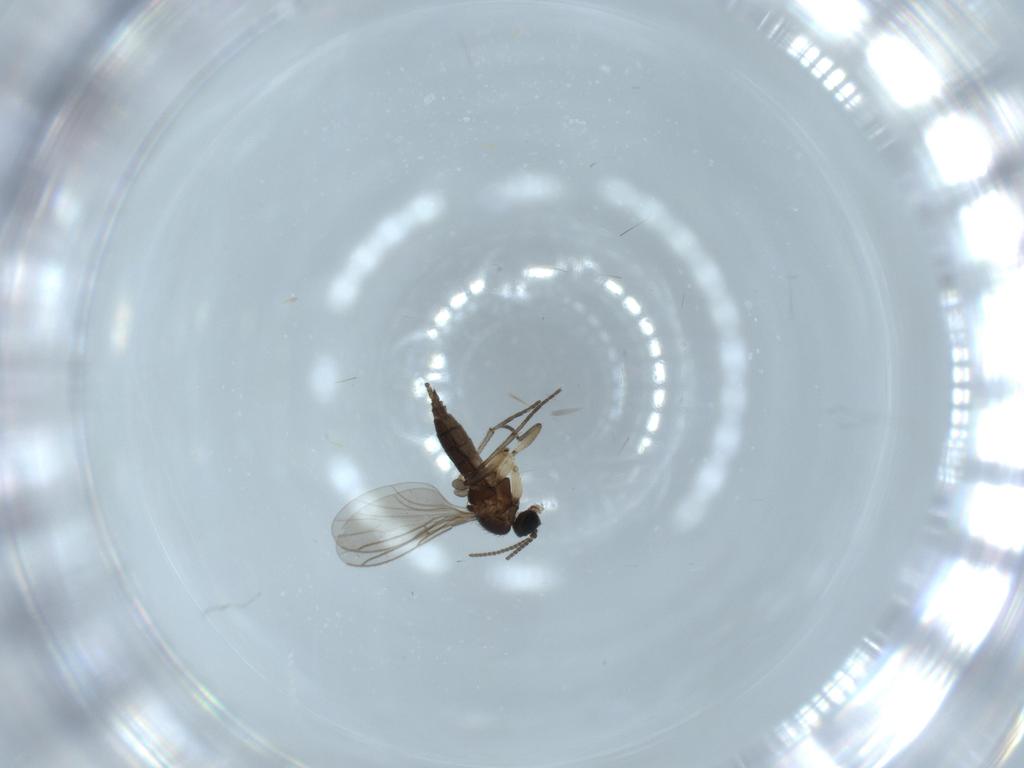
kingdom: Animalia
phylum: Arthropoda
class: Insecta
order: Diptera
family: Sciaridae
